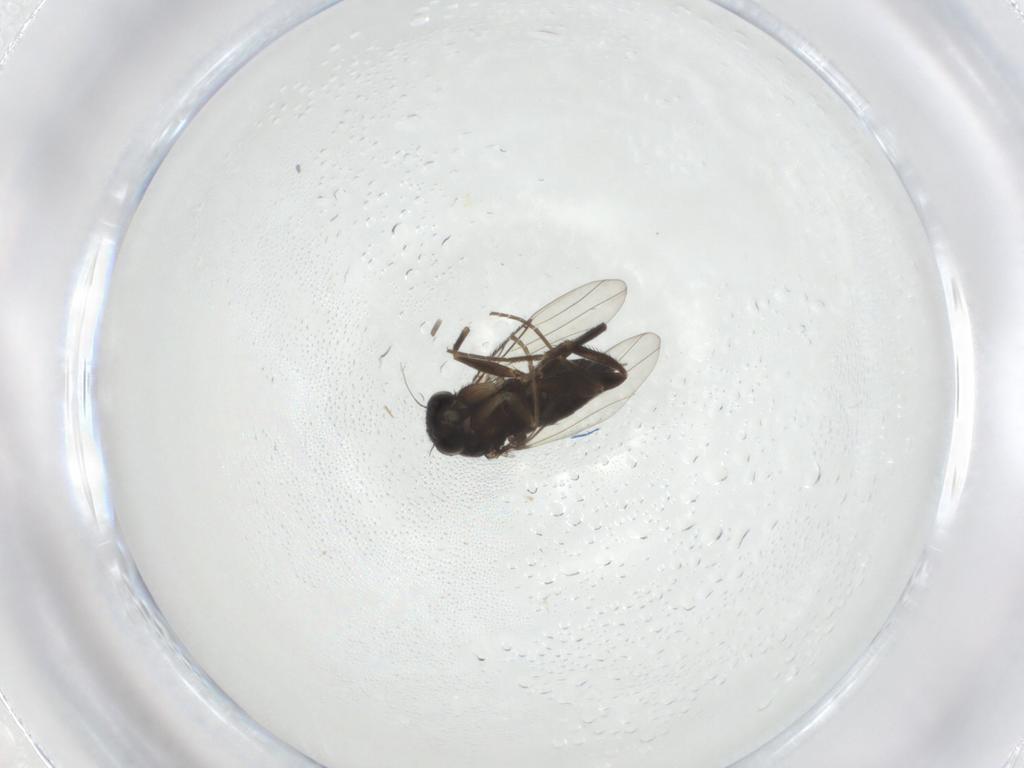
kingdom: Animalia
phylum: Arthropoda
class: Insecta
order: Diptera
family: Phoridae
